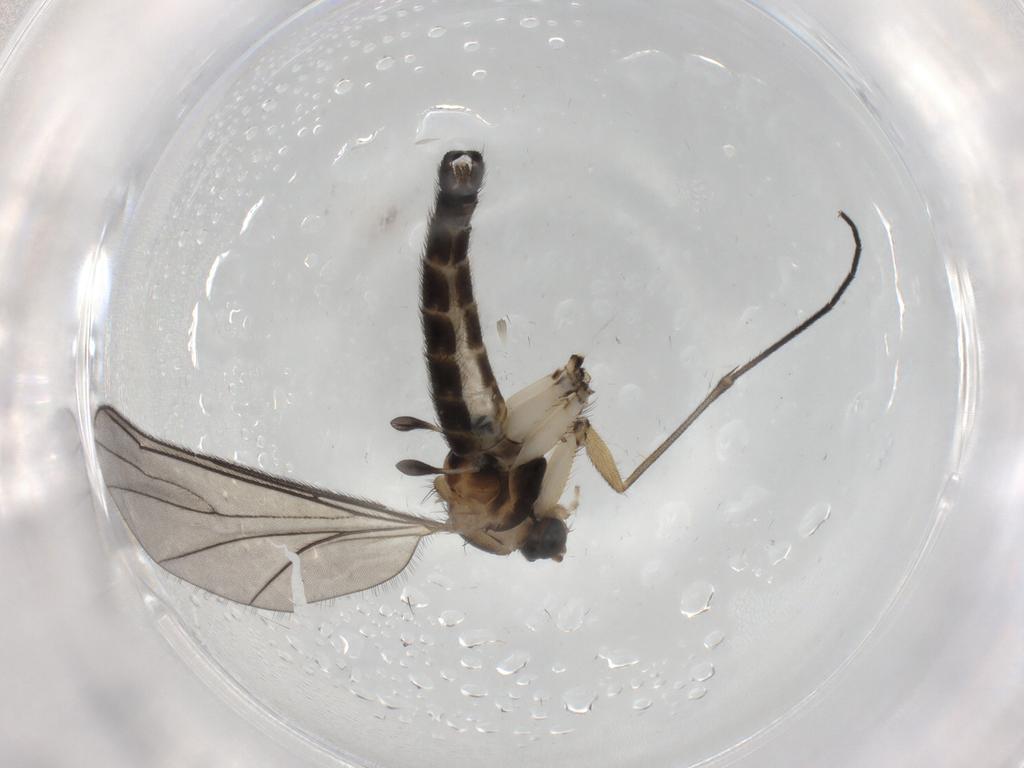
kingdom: Animalia
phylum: Arthropoda
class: Insecta
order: Diptera
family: Sciaridae
